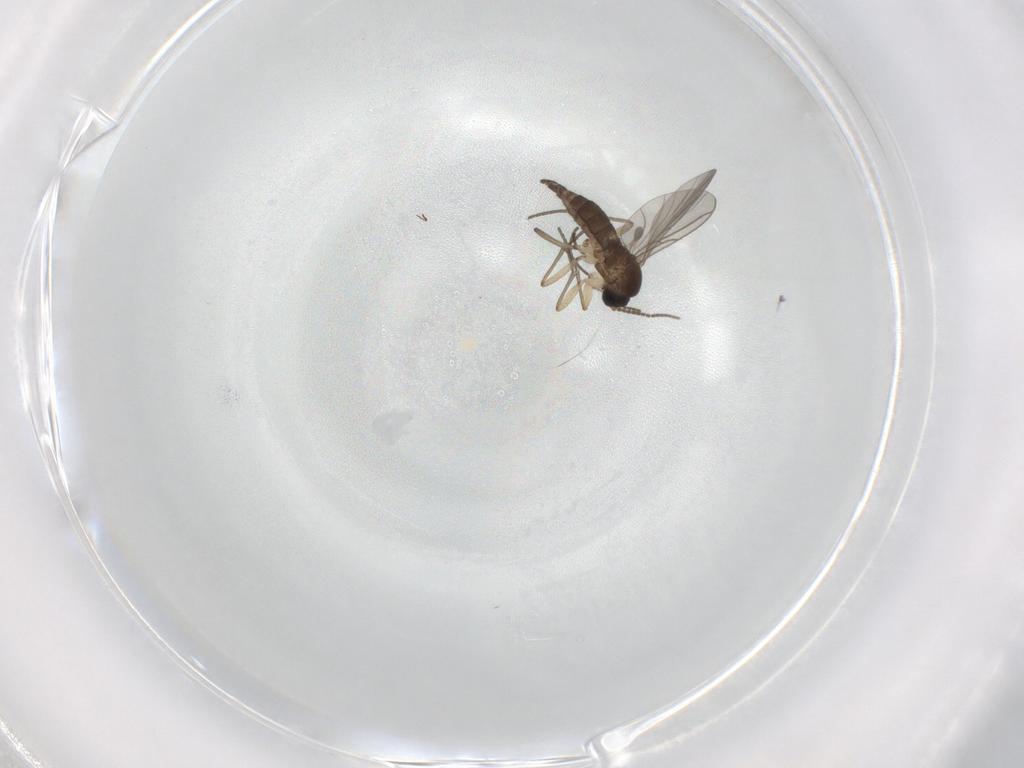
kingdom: Animalia
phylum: Arthropoda
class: Insecta
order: Diptera
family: Sciaridae
